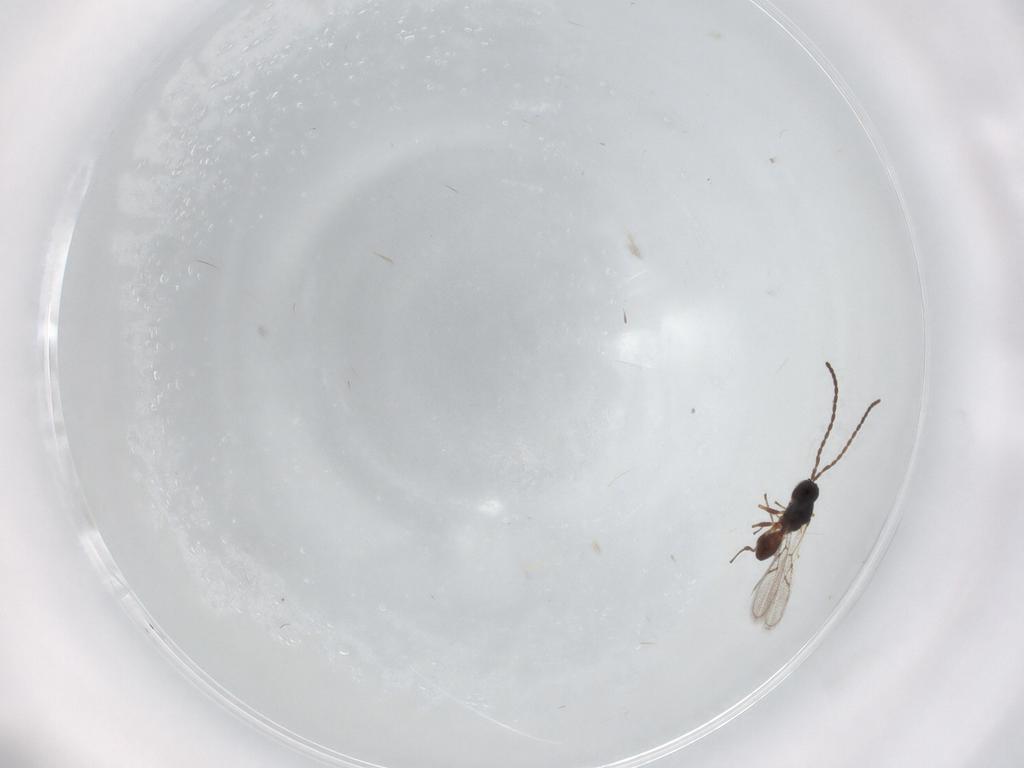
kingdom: Animalia
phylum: Arthropoda
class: Insecta
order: Hymenoptera
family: Figitidae
